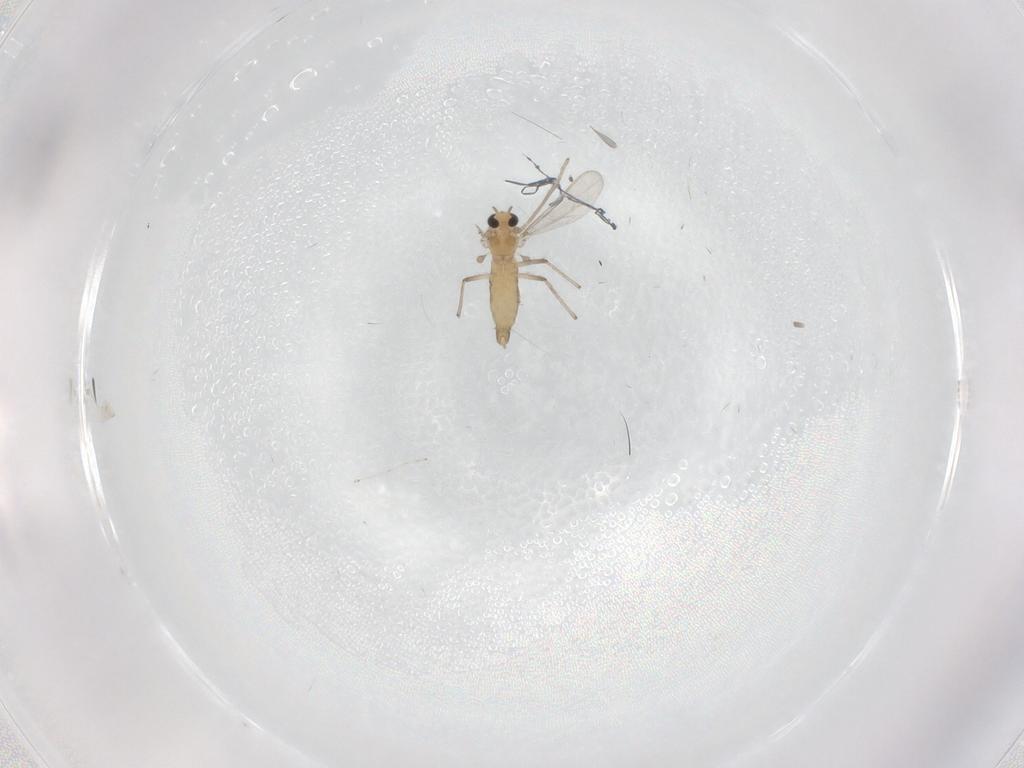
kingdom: Animalia
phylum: Arthropoda
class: Insecta
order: Diptera
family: Chironomidae
